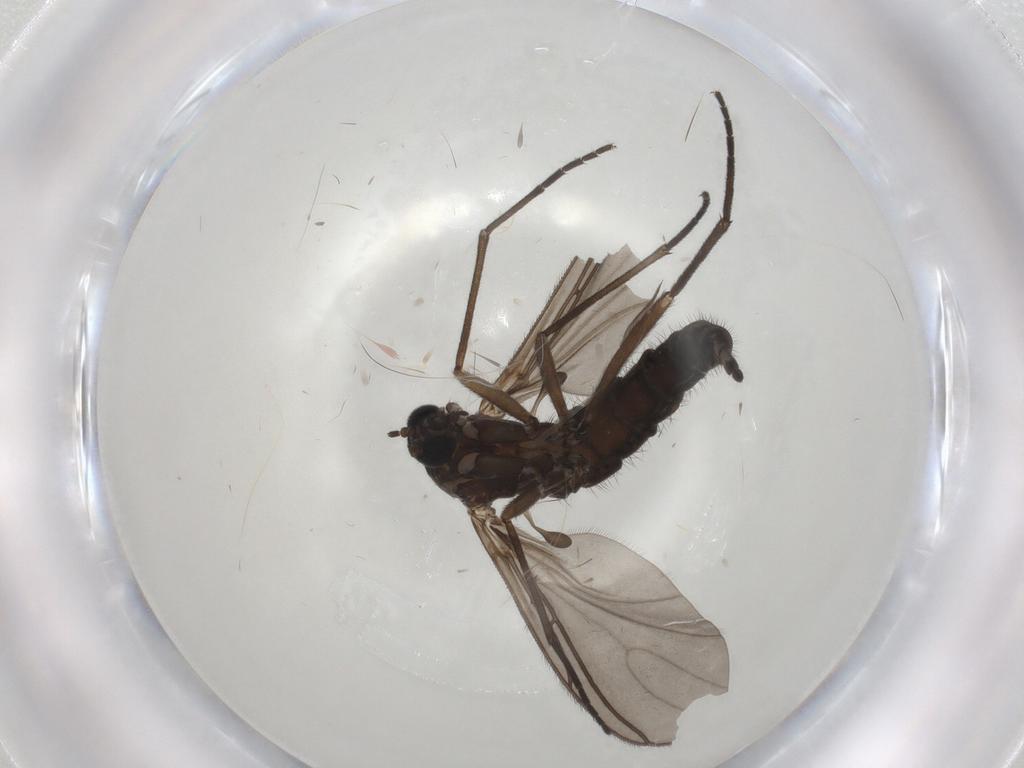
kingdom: Animalia
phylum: Arthropoda
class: Insecta
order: Diptera
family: Sciaridae
